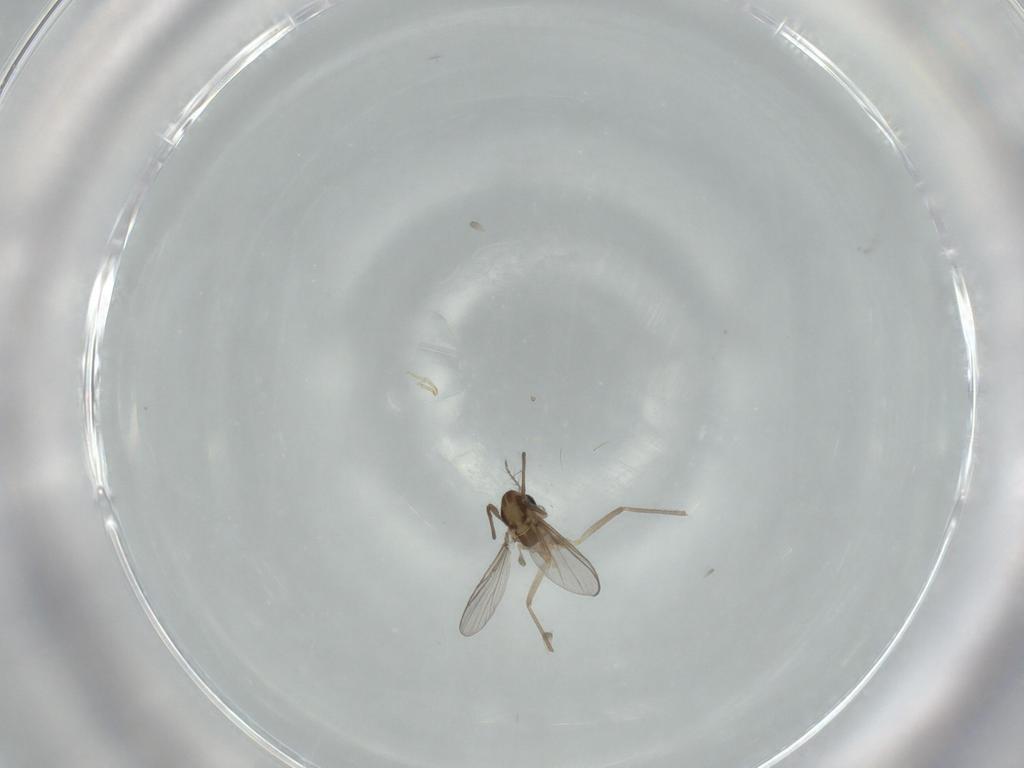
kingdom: Animalia
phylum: Arthropoda
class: Insecta
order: Diptera
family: Chironomidae
